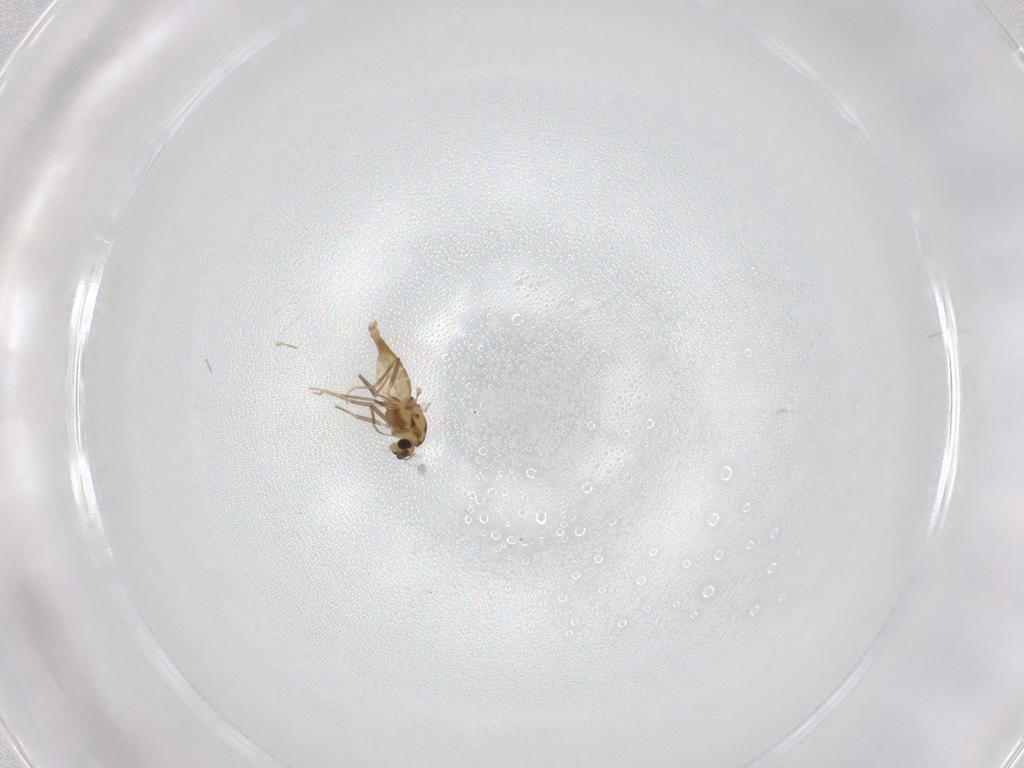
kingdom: Animalia
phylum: Arthropoda
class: Insecta
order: Diptera
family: Chironomidae
